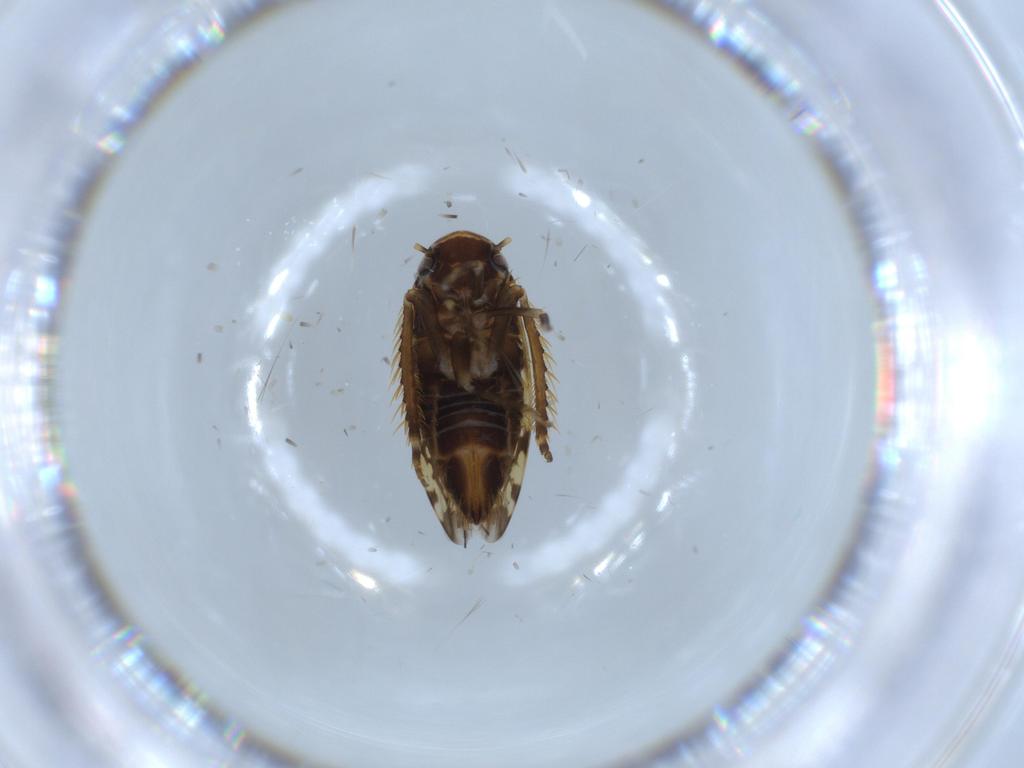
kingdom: Animalia
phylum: Arthropoda
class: Insecta
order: Hemiptera
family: Cicadellidae
